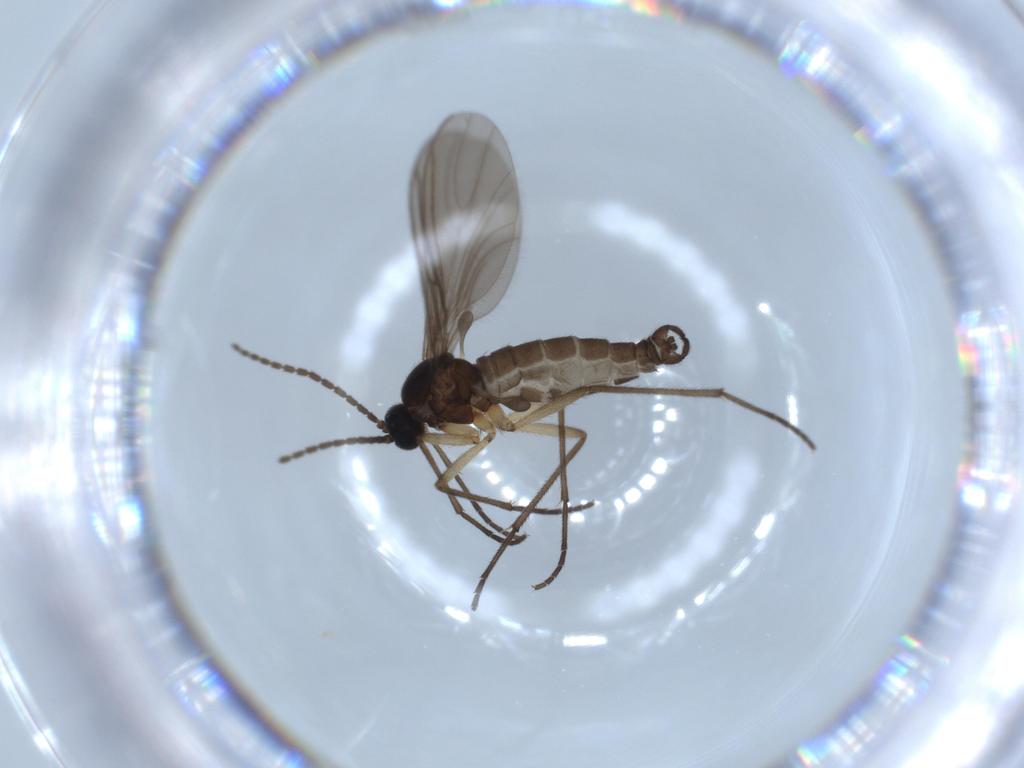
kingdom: Animalia
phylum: Arthropoda
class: Insecta
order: Diptera
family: Sciaridae
